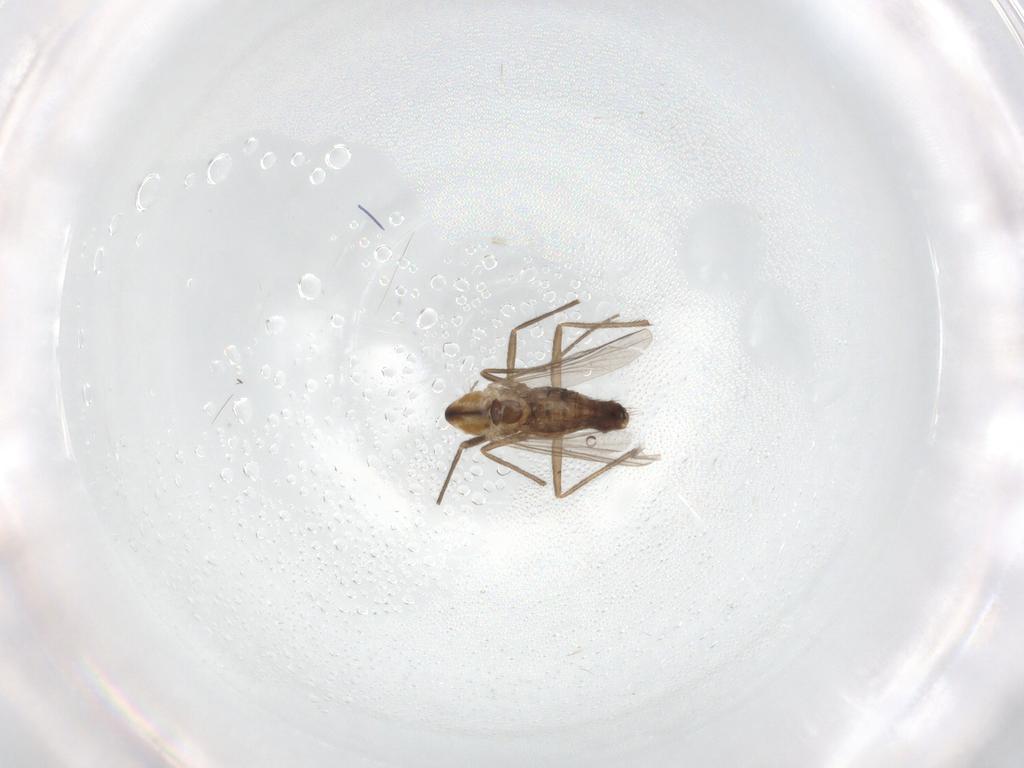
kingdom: Animalia
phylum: Arthropoda
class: Insecta
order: Diptera
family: Chironomidae
